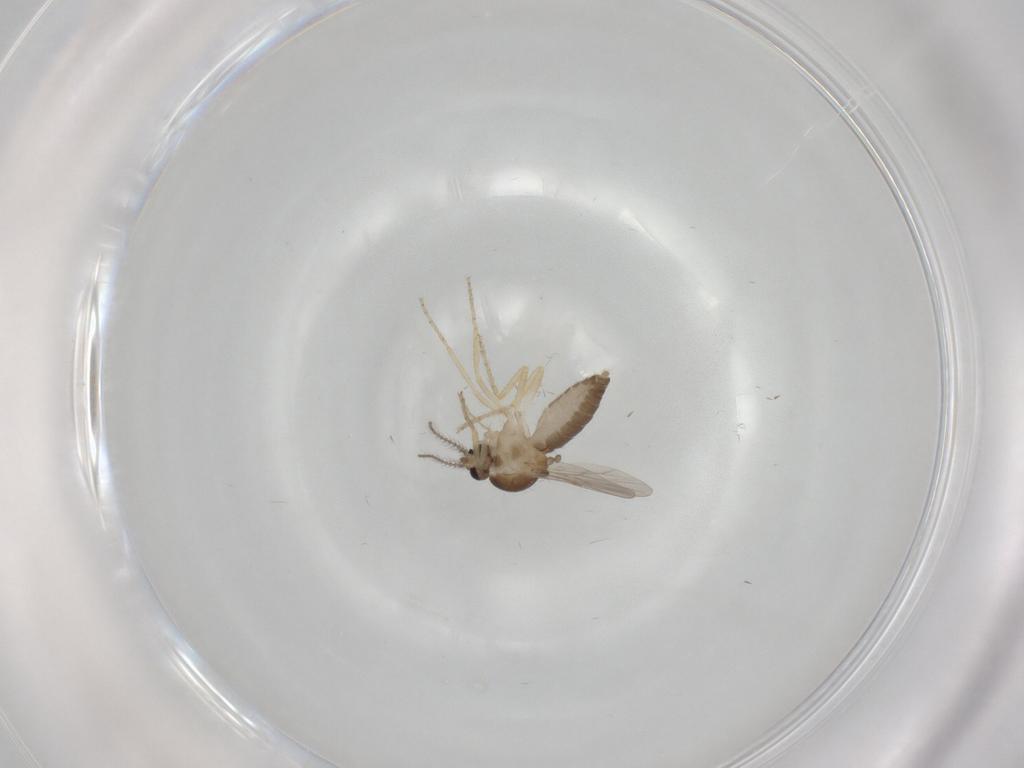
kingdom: Animalia
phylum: Arthropoda
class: Insecta
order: Diptera
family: Ceratopogonidae
